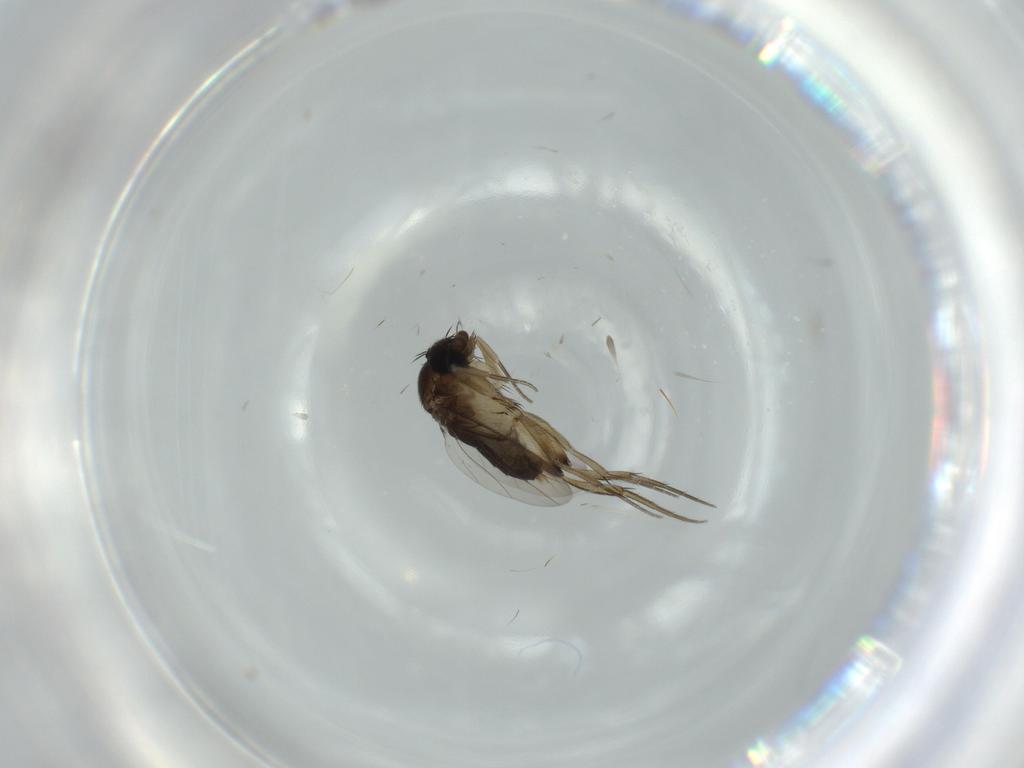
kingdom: Animalia
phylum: Arthropoda
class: Insecta
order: Diptera
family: Phoridae
